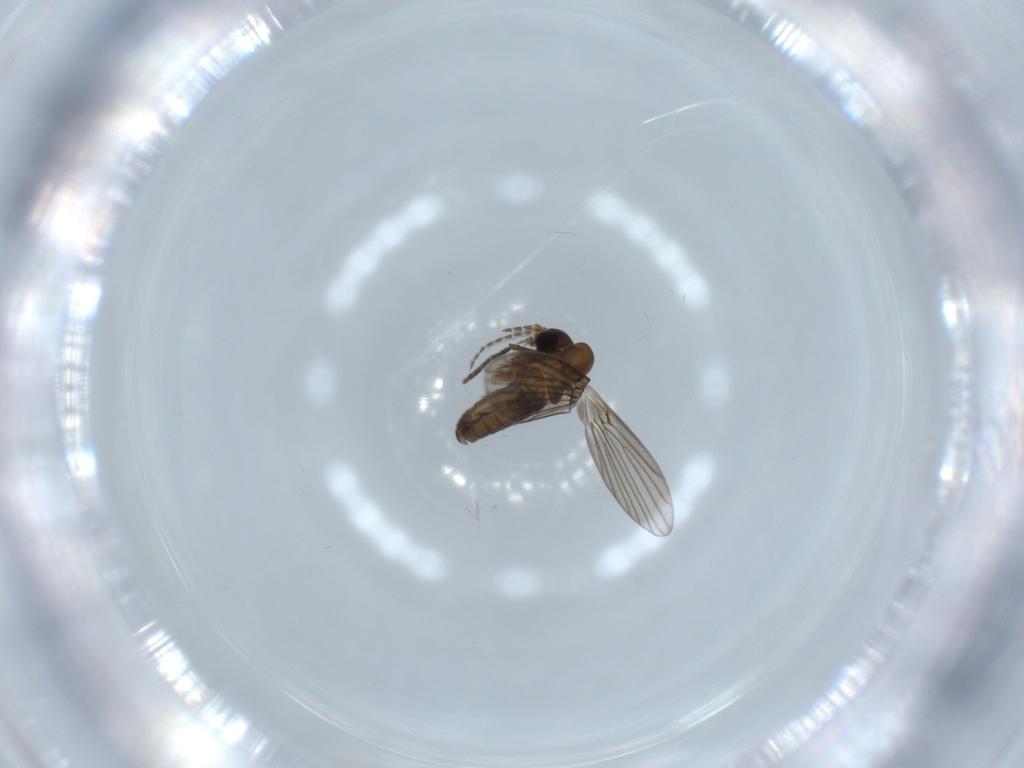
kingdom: Animalia
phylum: Arthropoda
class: Insecta
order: Diptera
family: Psychodidae
